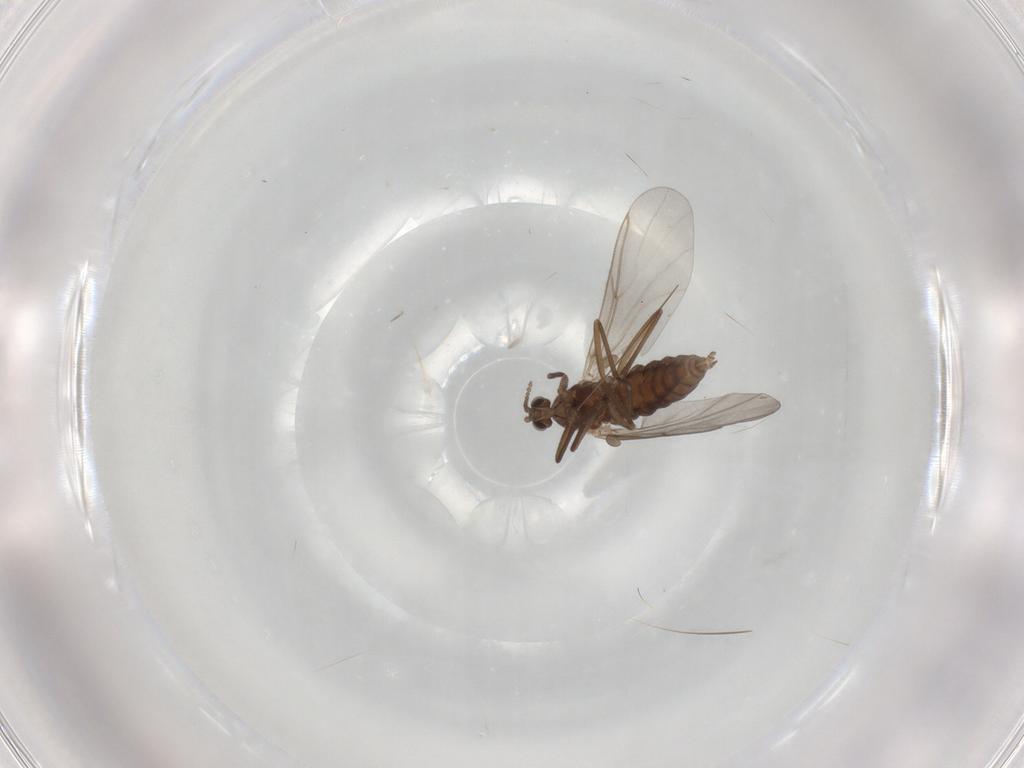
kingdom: Animalia
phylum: Arthropoda
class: Insecta
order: Diptera
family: Cecidomyiidae
